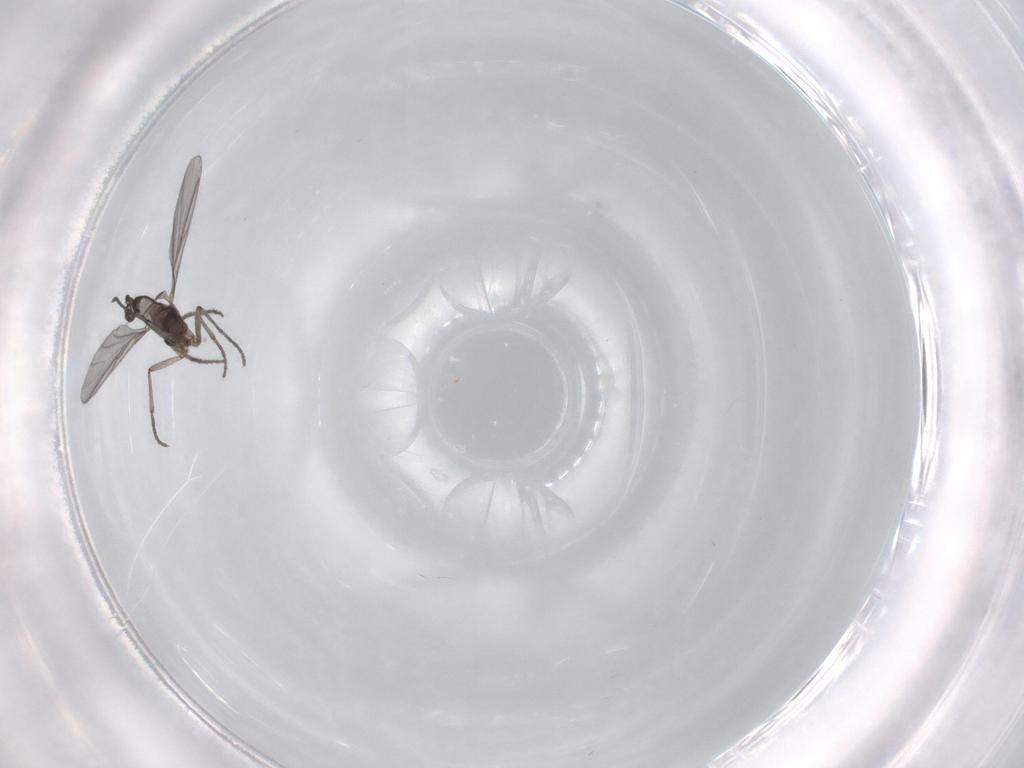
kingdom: Animalia
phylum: Arthropoda
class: Insecta
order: Diptera
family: Sciaridae
